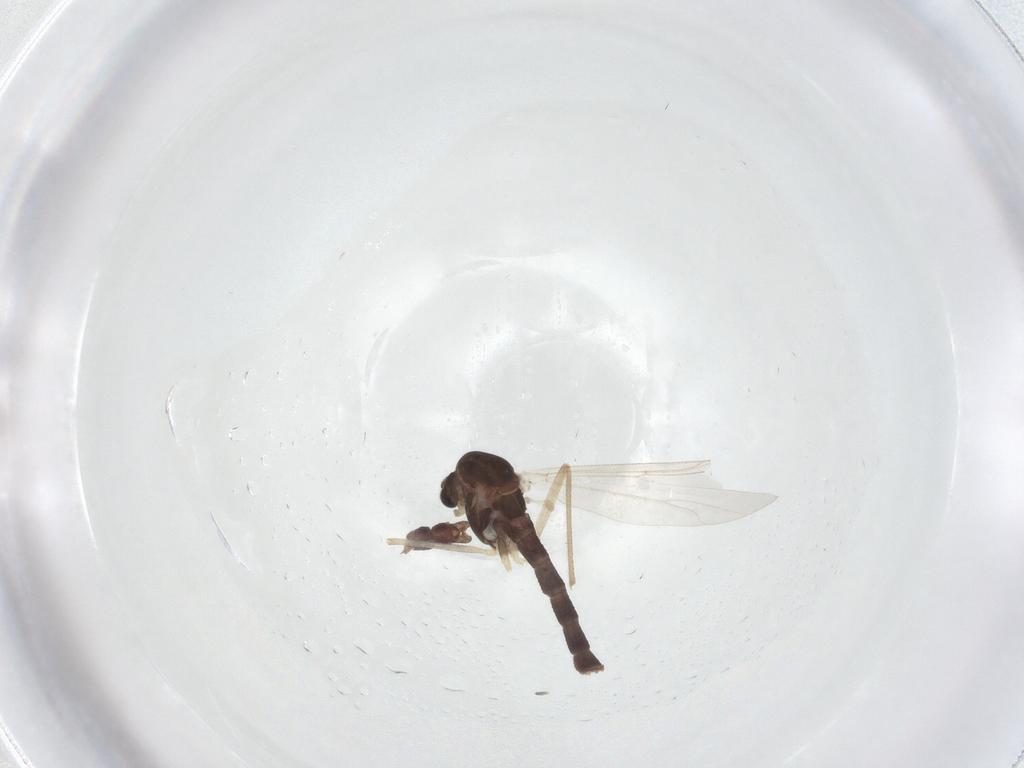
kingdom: Animalia
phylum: Arthropoda
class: Insecta
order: Diptera
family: Chironomidae
